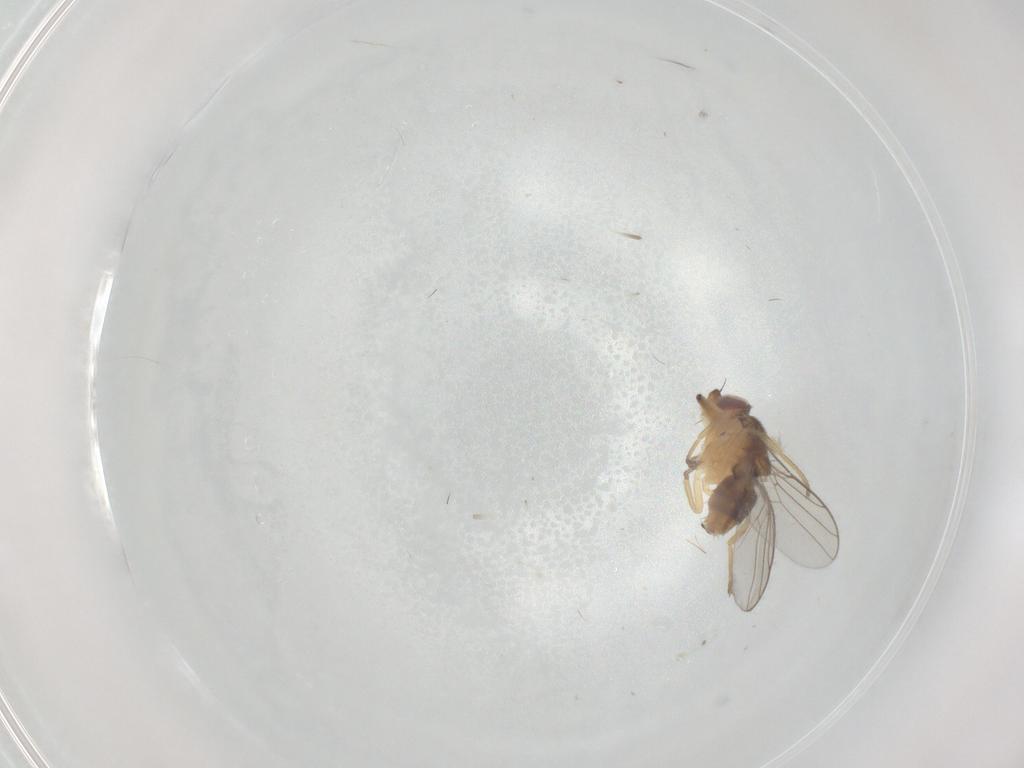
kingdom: Animalia
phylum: Arthropoda
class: Insecta
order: Diptera
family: Chloropidae
